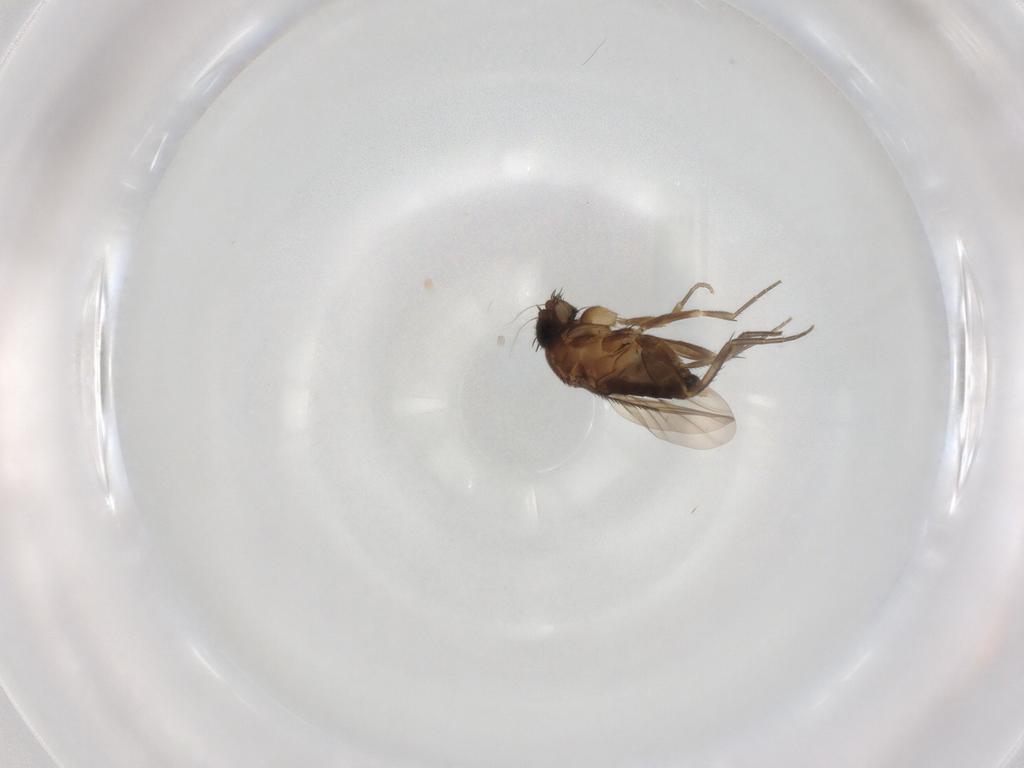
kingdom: Animalia
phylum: Arthropoda
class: Insecta
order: Diptera
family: Phoridae
